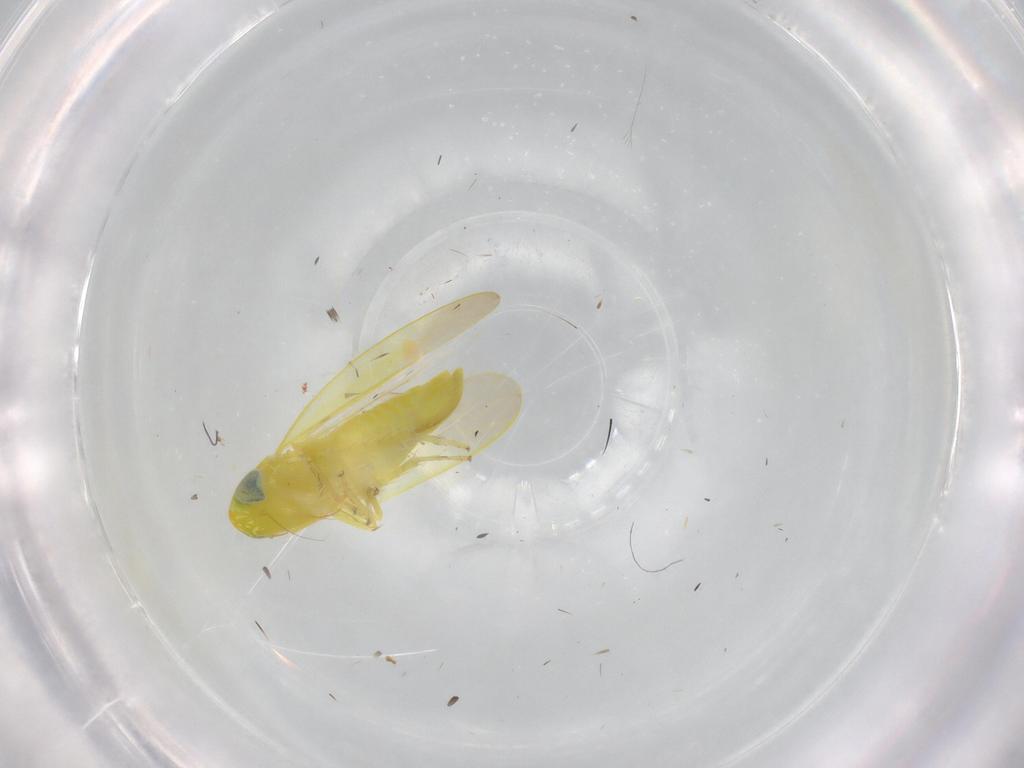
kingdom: Animalia
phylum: Arthropoda
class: Insecta
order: Hemiptera
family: Cicadellidae
